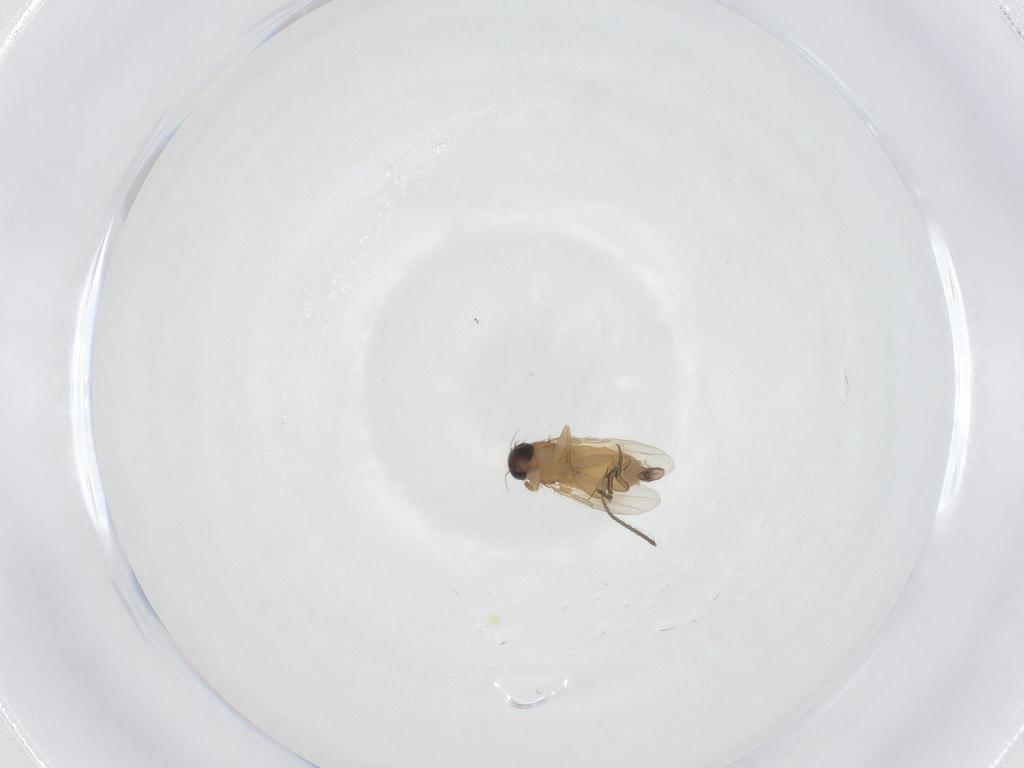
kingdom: Animalia
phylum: Arthropoda
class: Insecta
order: Diptera
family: Cecidomyiidae
